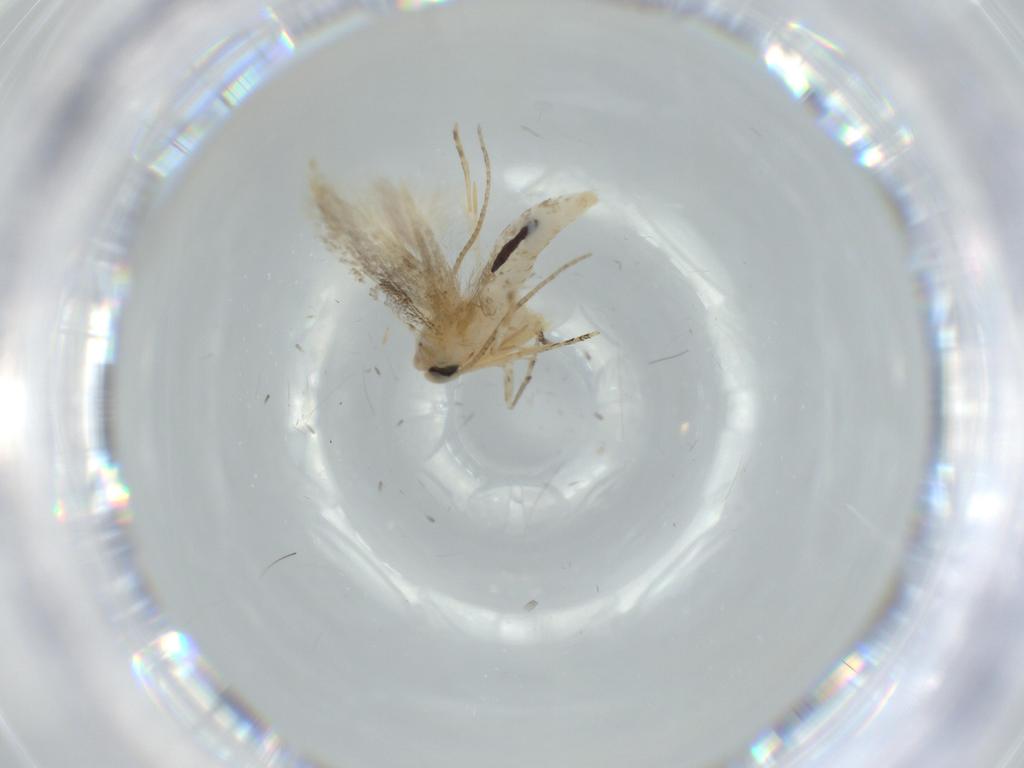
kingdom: Animalia
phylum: Arthropoda
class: Insecta
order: Lepidoptera
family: Bucculatricidae
